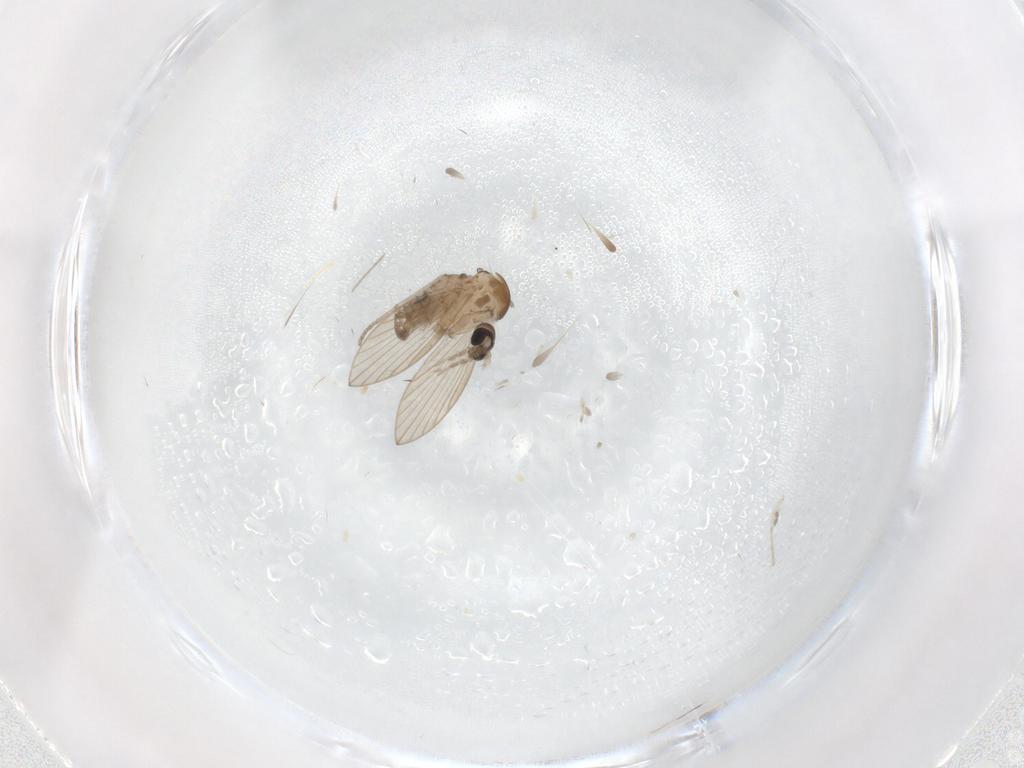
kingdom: Animalia
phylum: Arthropoda
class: Insecta
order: Diptera
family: Psychodidae
